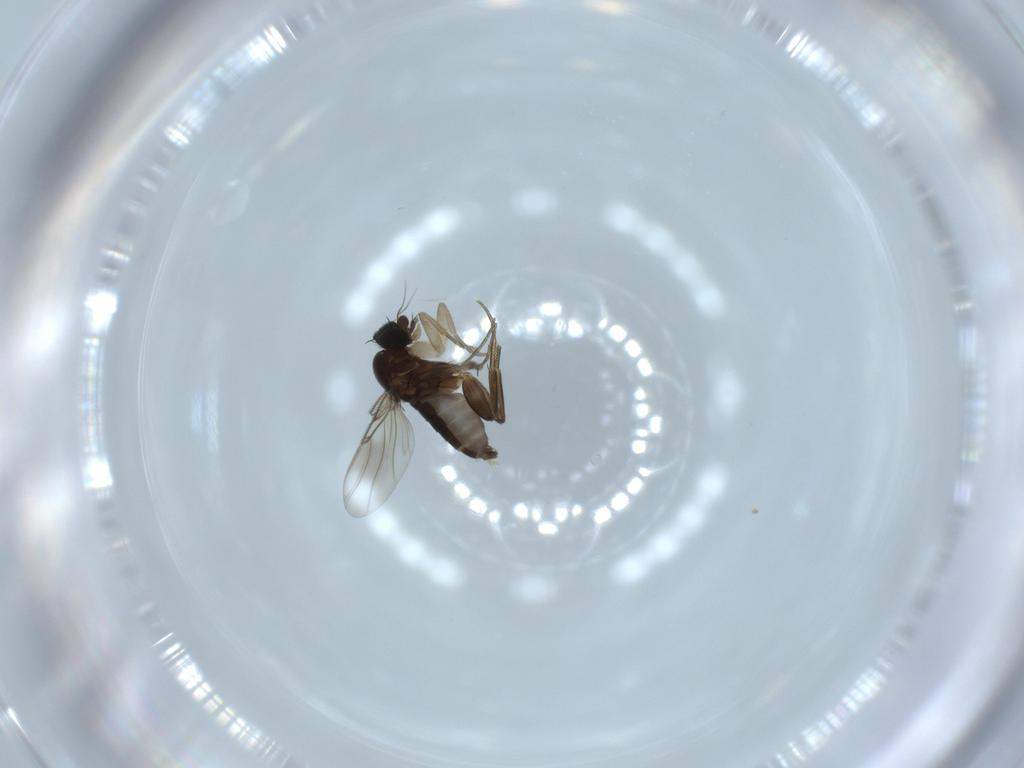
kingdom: Animalia
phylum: Arthropoda
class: Insecta
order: Diptera
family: Phoridae
